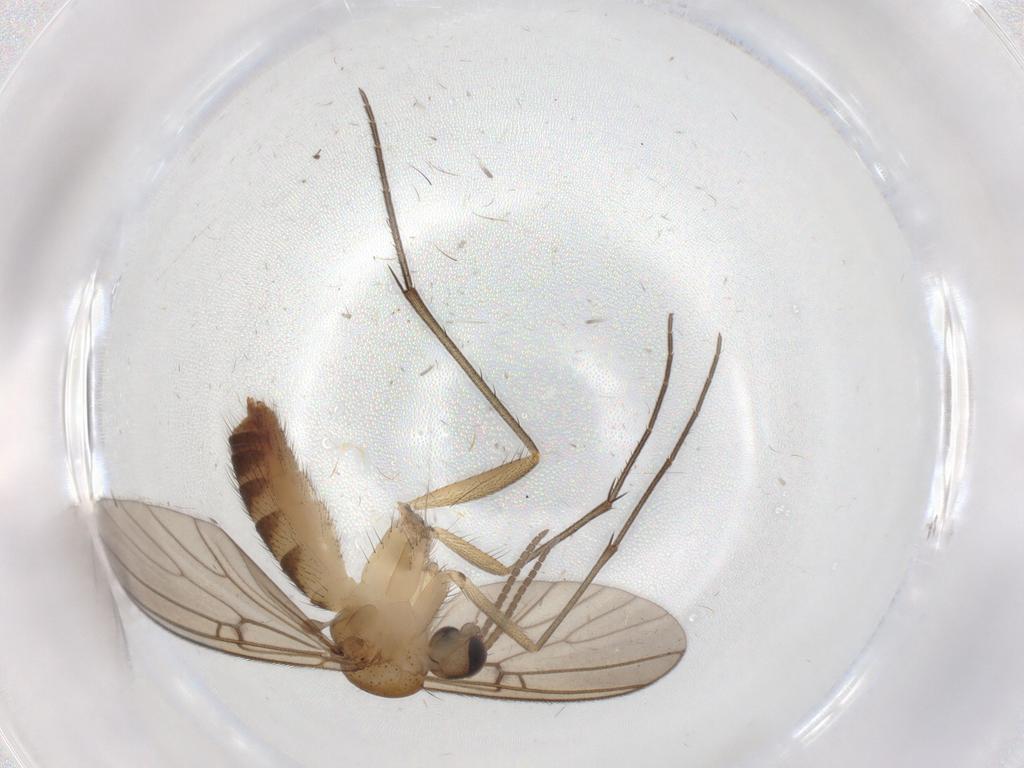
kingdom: Animalia
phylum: Arthropoda
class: Insecta
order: Diptera
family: Mycetophilidae
